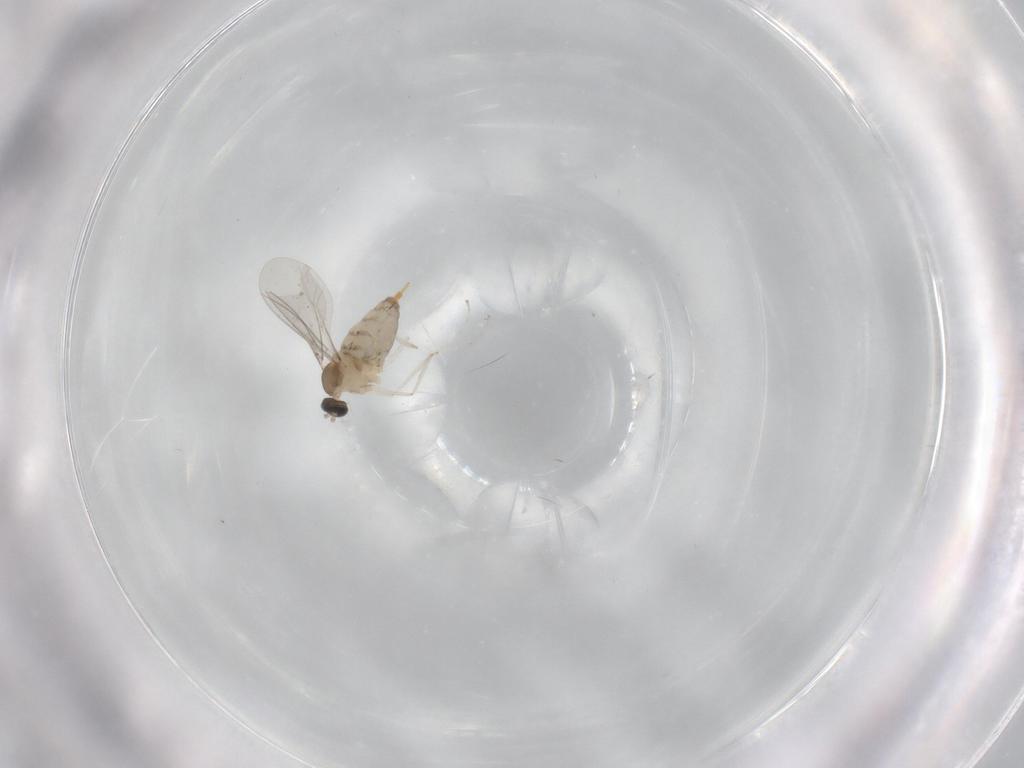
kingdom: Animalia
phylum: Arthropoda
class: Insecta
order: Diptera
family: Cecidomyiidae
